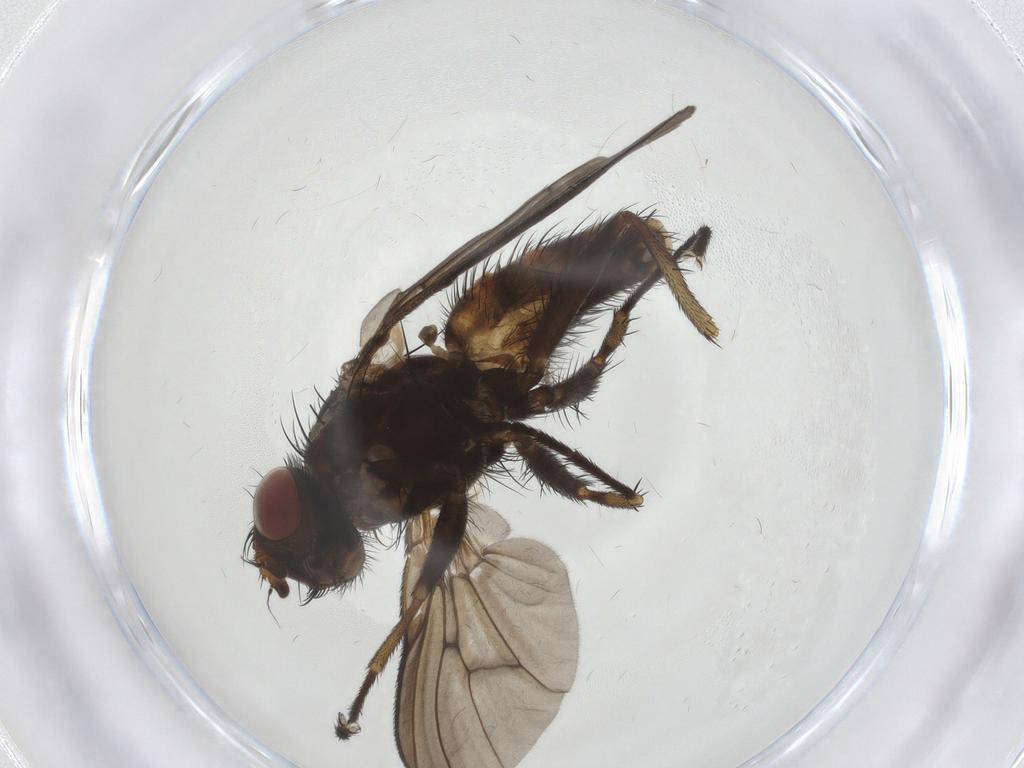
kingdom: Animalia
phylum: Arthropoda
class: Insecta
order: Diptera
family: Muscidae
